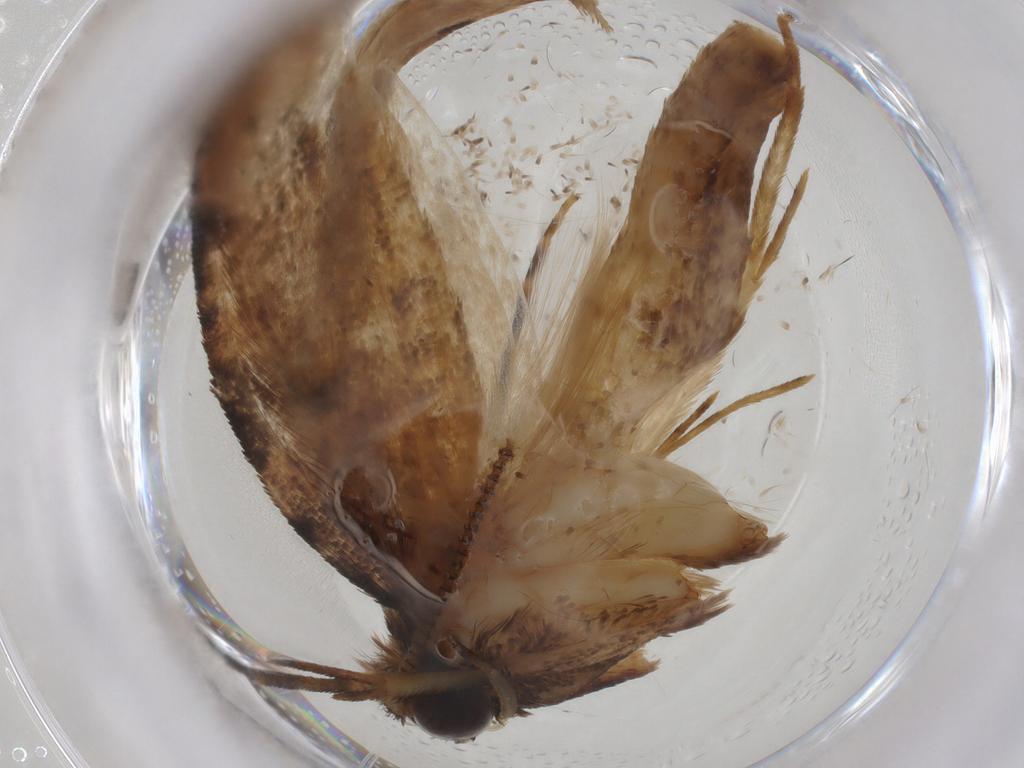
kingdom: Animalia
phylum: Arthropoda
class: Insecta
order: Lepidoptera
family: Tineidae
